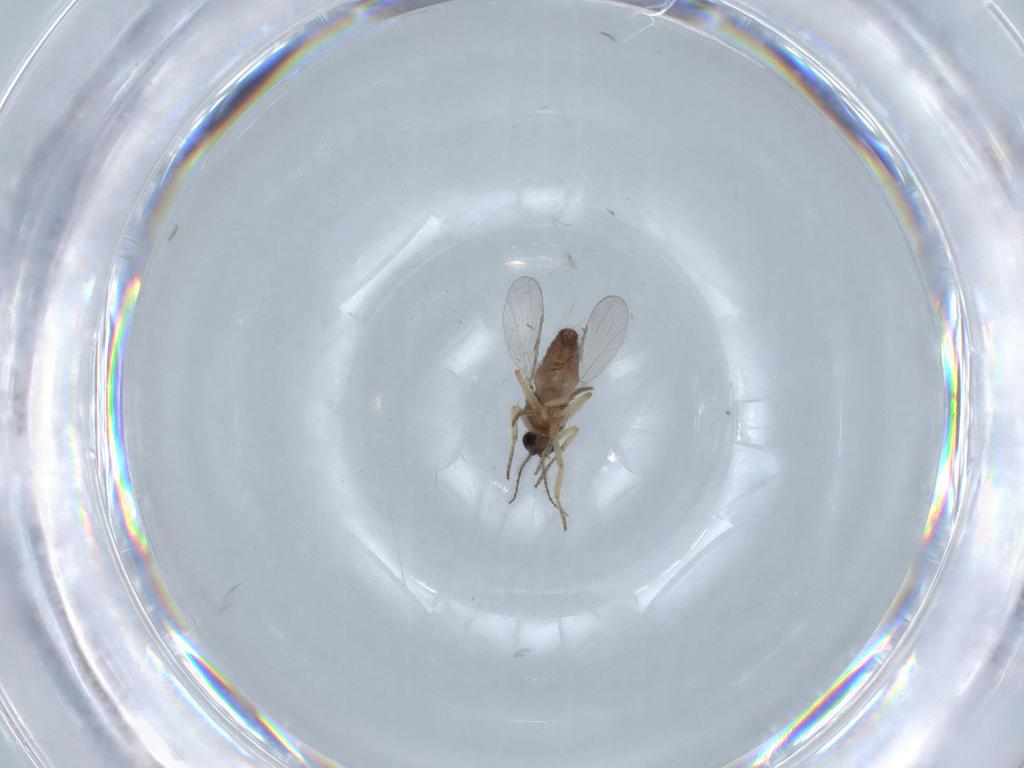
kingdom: Animalia
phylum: Arthropoda
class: Insecta
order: Diptera
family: Ceratopogonidae
